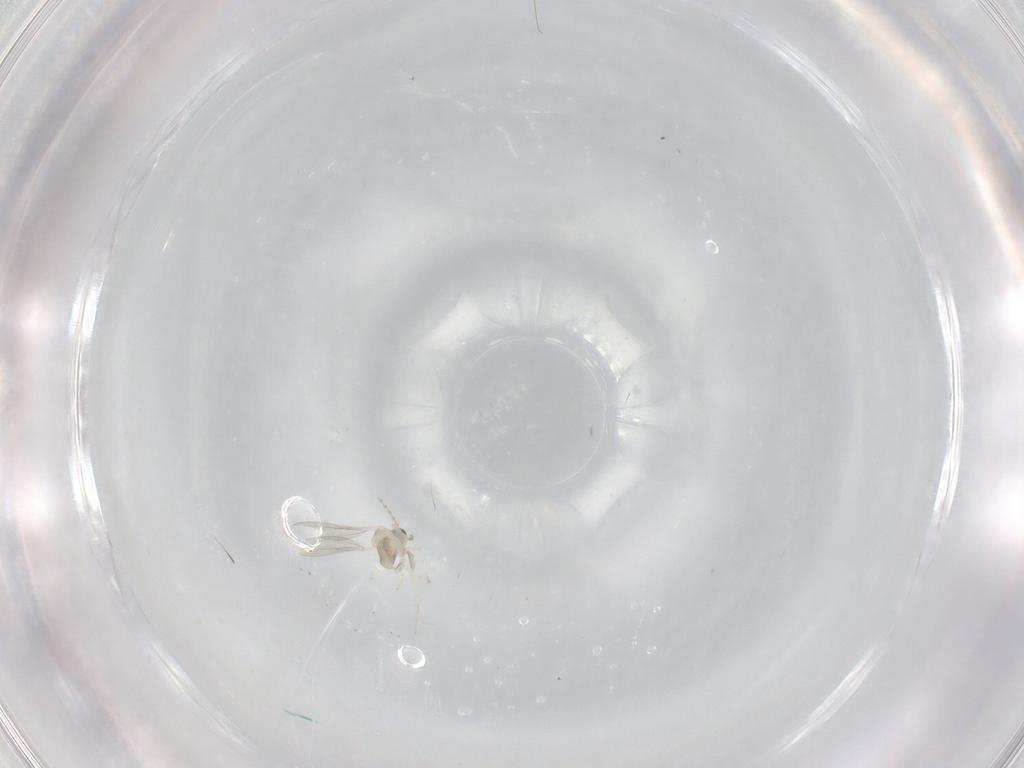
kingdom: Animalia
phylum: Arthropoda
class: Insecta
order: Diptera
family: Cecidomyiidae
